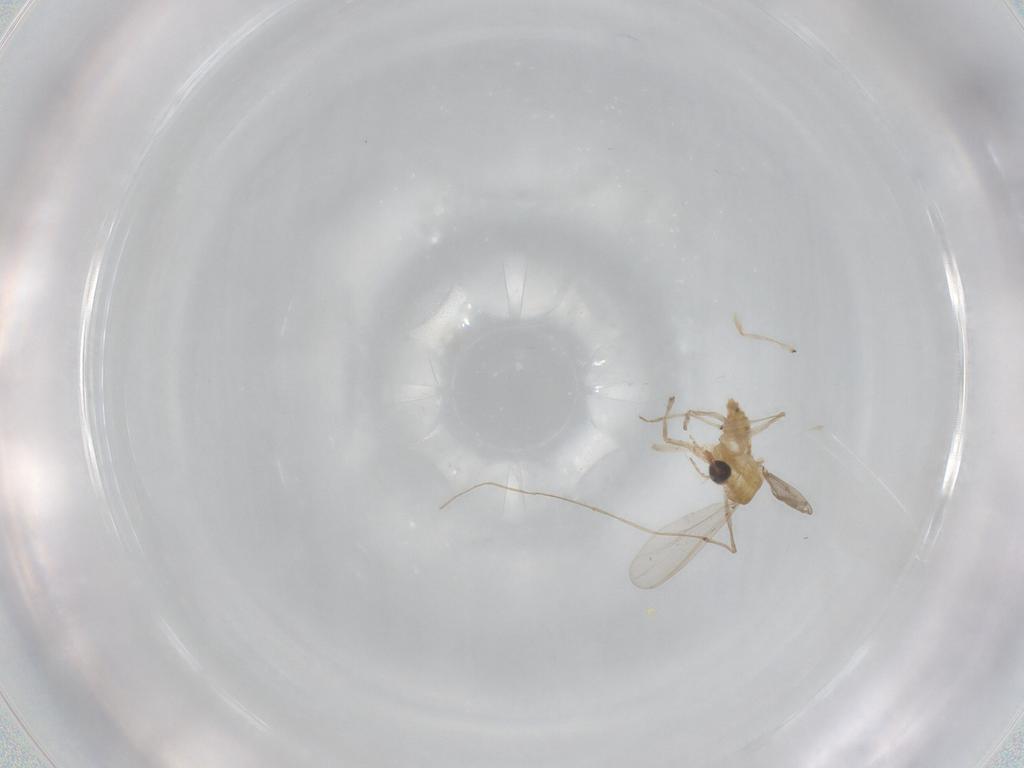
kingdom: Animalia
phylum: Arthropoda
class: Insecta
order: Diptera
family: Chironomidae
